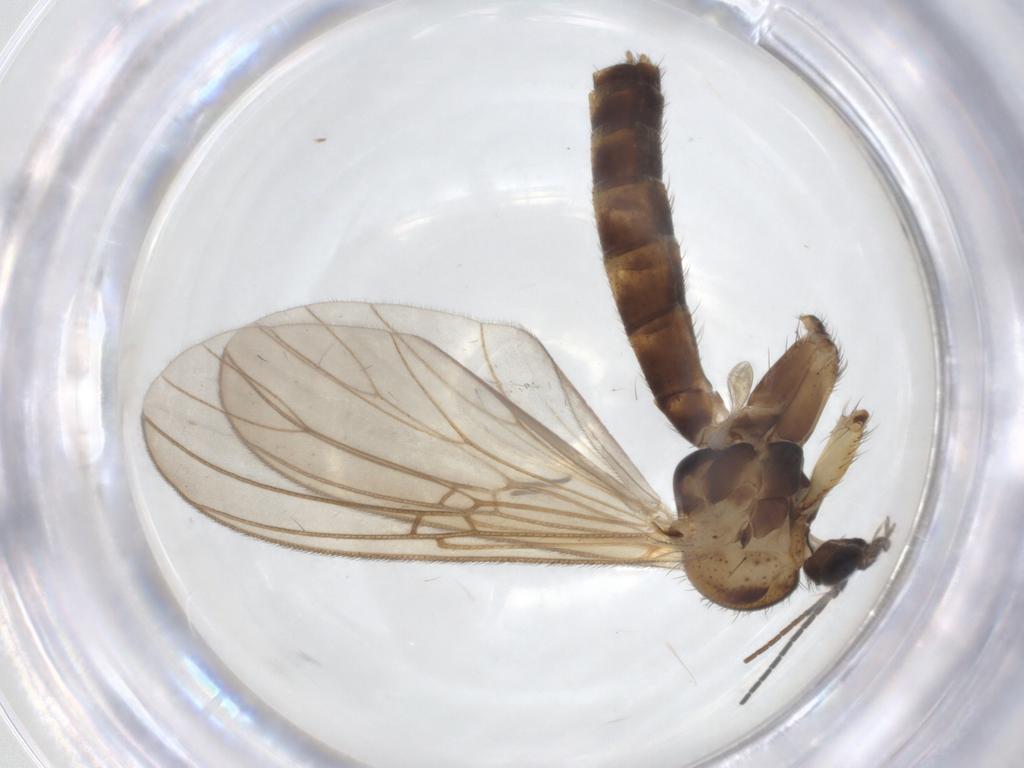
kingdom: Animalia
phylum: Arthropoda
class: Insecta
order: Diptera
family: Mycetophilidae
